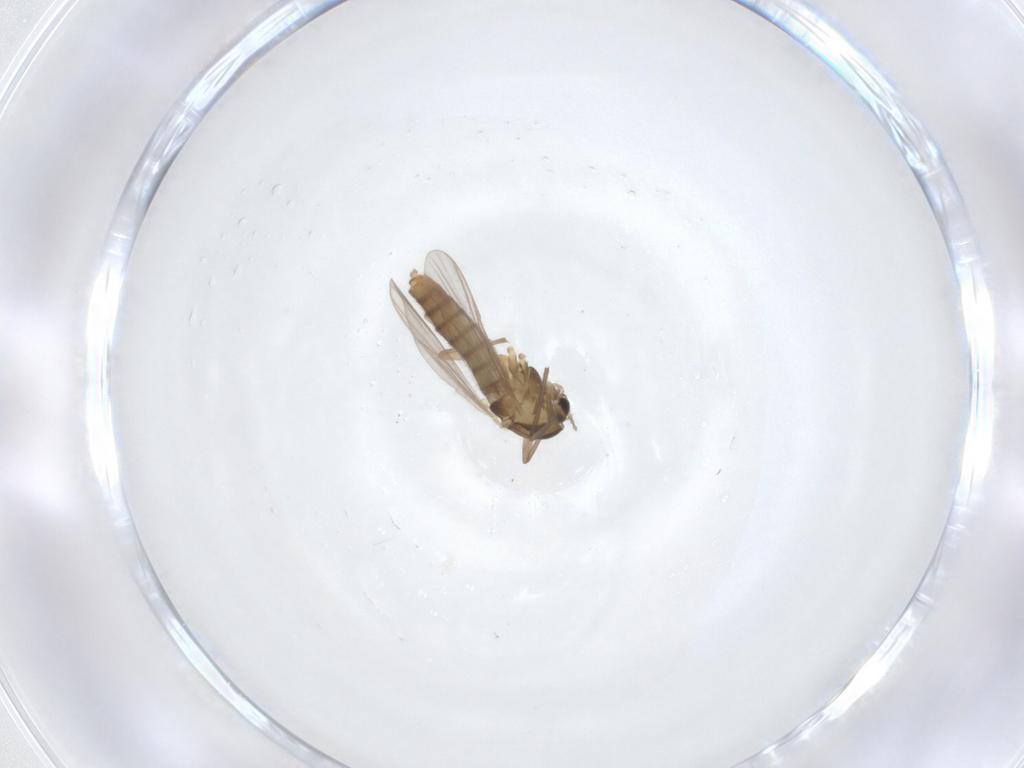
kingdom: Animalia
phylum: Arthropoda
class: Insecta
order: Diptera
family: Chironomidae
